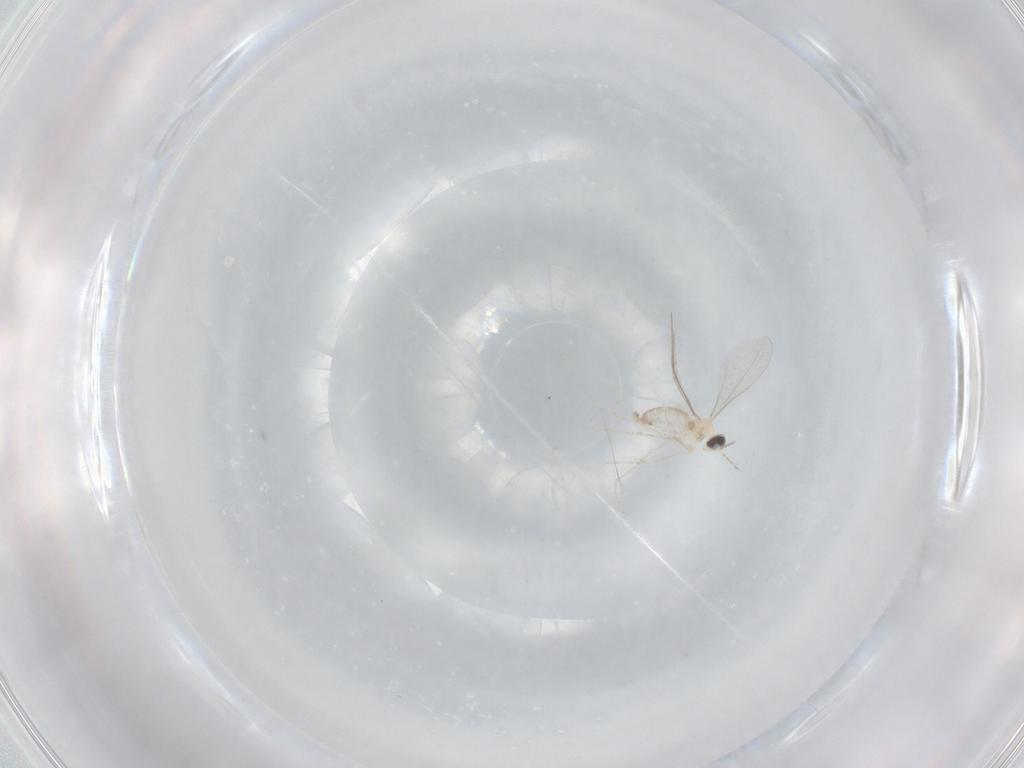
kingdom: Animalia
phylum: Arthropoda
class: Insecta
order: Diptera
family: Cecidomyiidae
